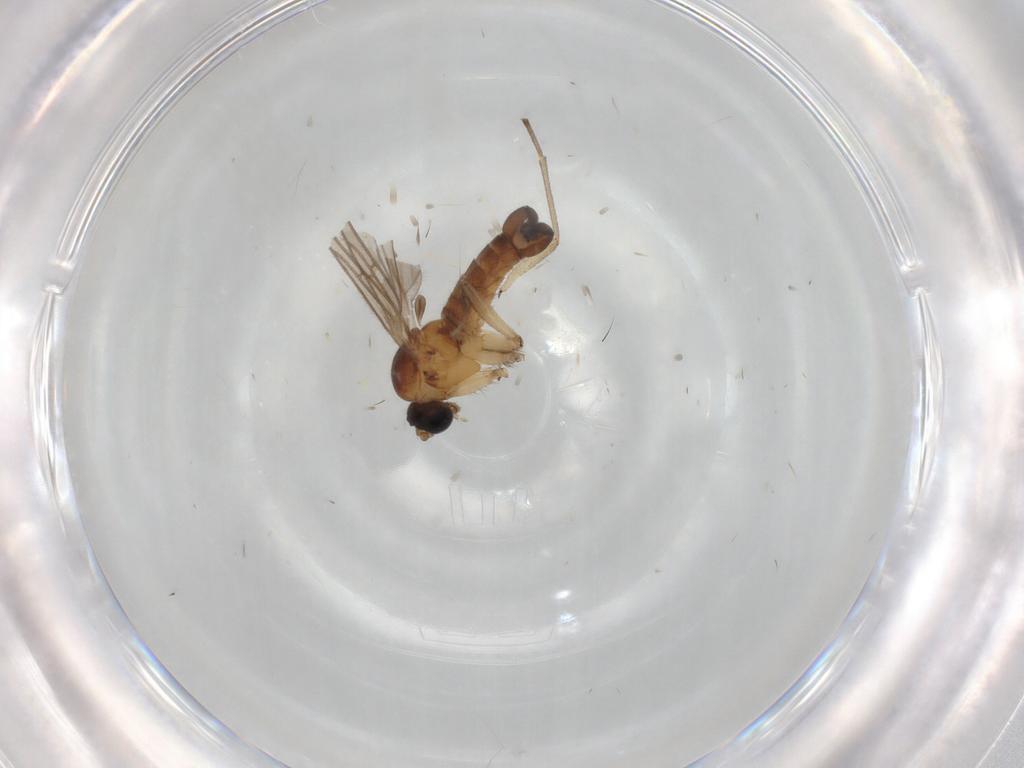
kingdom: Animalia
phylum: Arthropoda
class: Insecta
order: Diptera
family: Sciaridae
